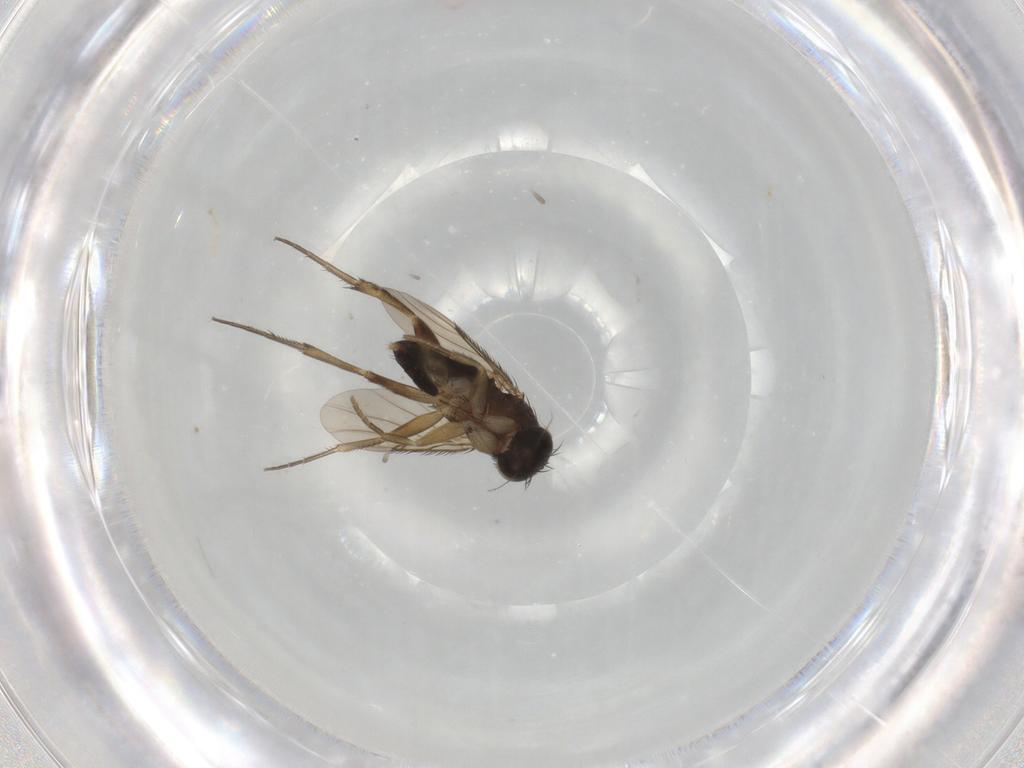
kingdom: Animalia
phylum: Arthropoda
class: Insecta
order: Diptera
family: Phoridae
